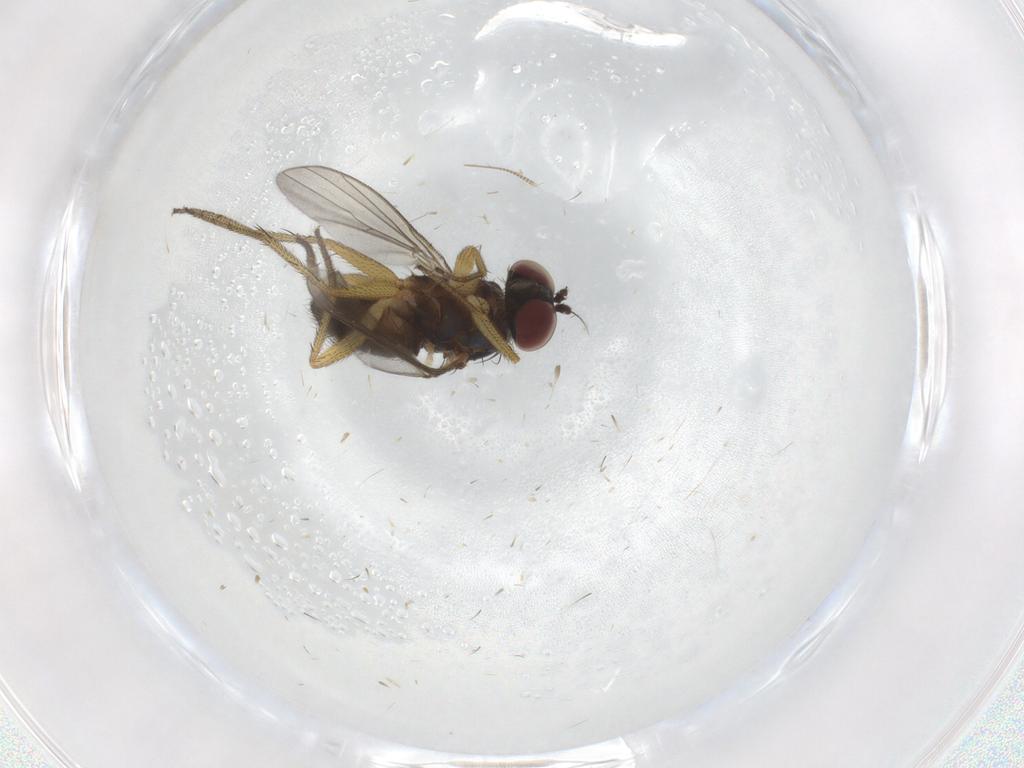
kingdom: Animalia
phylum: Arthropoda
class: Insecta
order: Diptera
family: Ceratopogonidae
